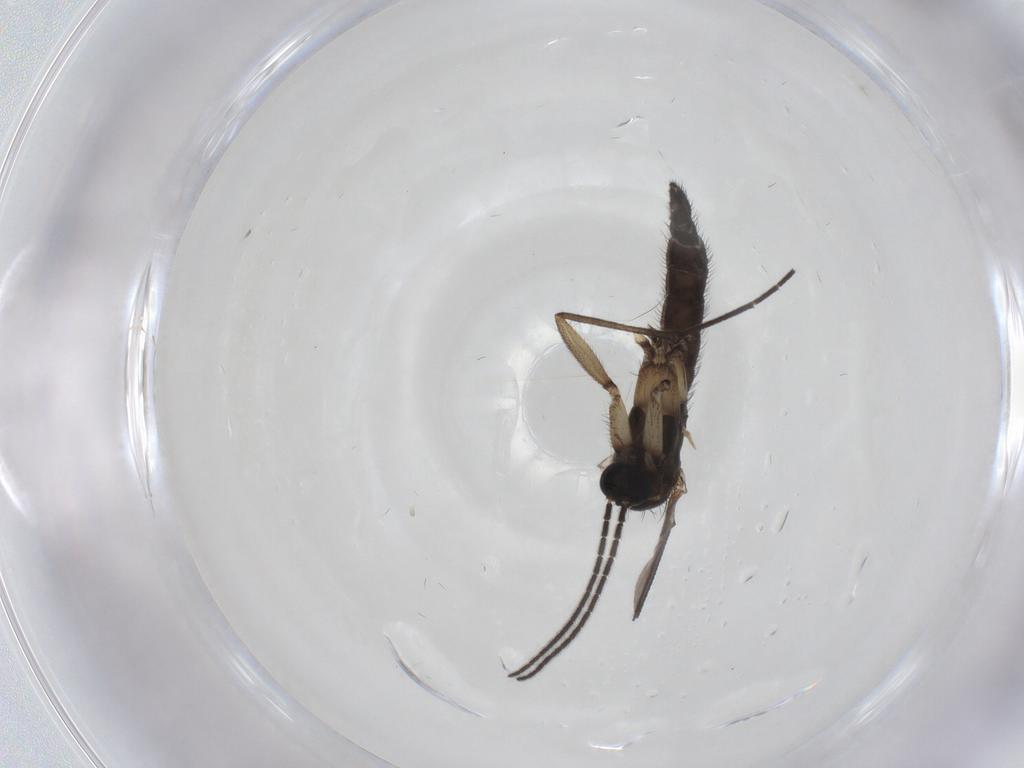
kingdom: Animalia
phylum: Arthropoda
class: Insecta
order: Diptera
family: Sciaridae
